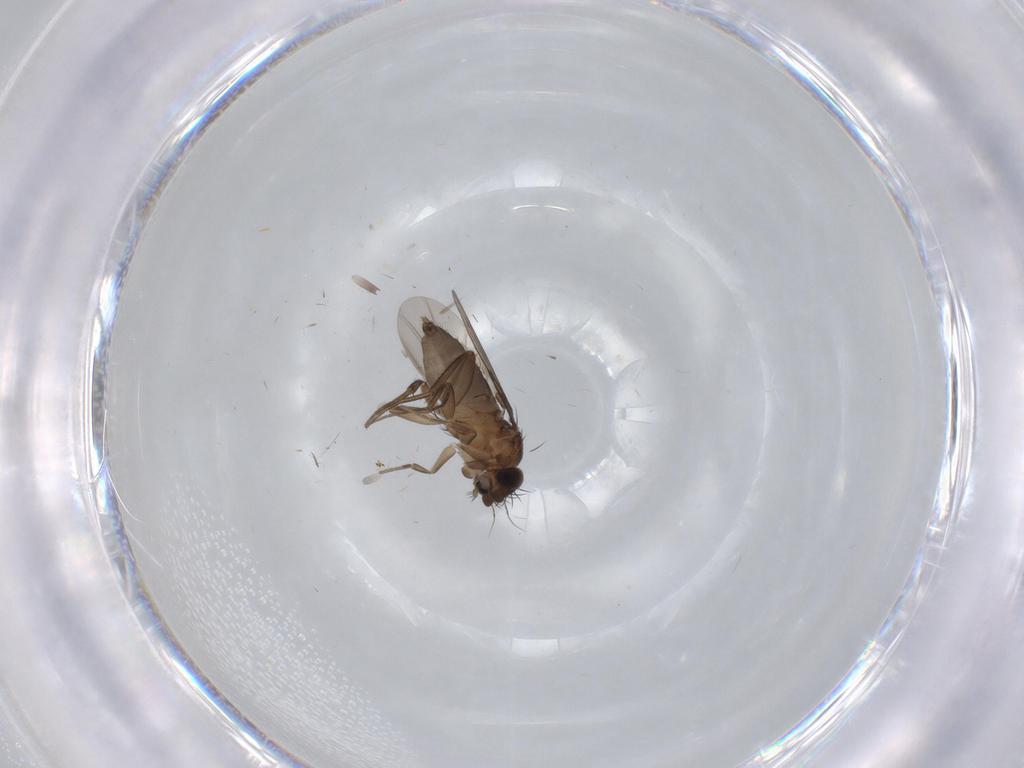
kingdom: Animalia
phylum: Arthropoda
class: Insecta
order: Diptera
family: Phoridae
